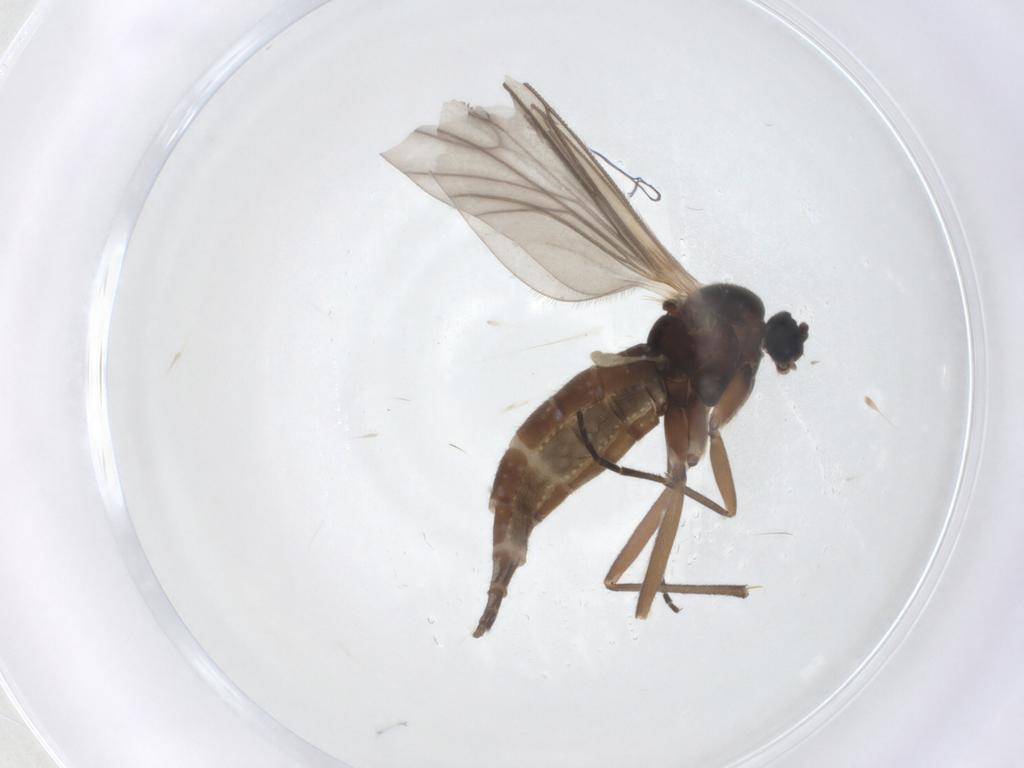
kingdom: Animalia
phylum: Arthropoda
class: Insecta
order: Diptera
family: Sciaridae
